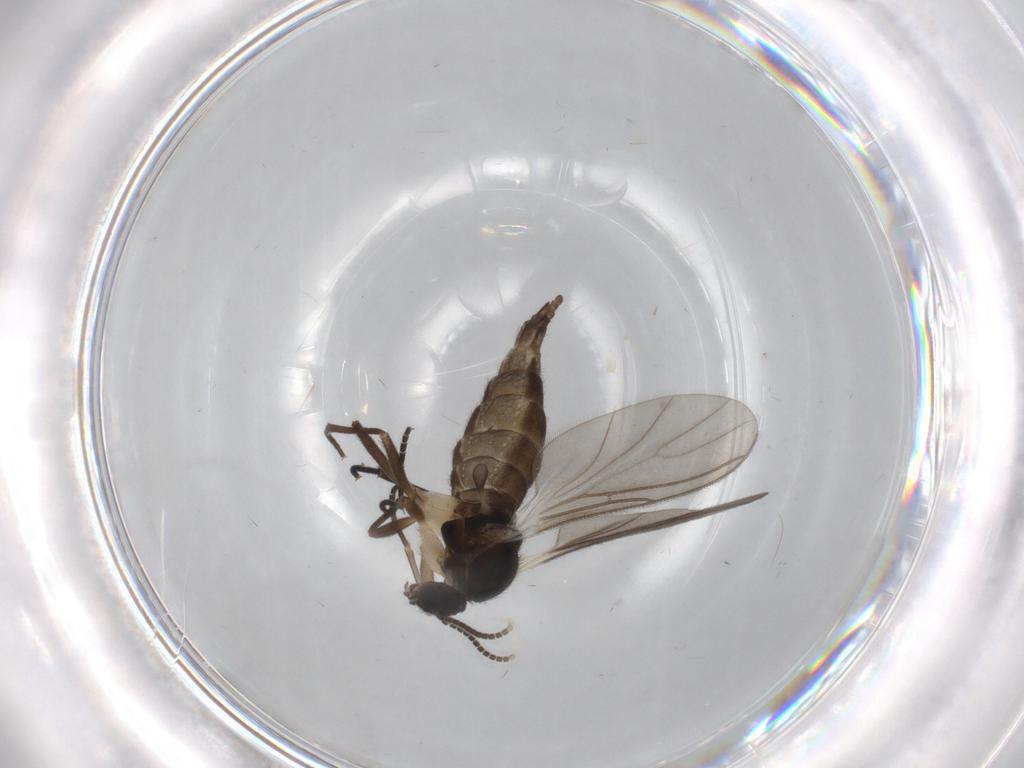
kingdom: Animalia
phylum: Arthropoda
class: Insecta
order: Diptera
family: Sciaridae
